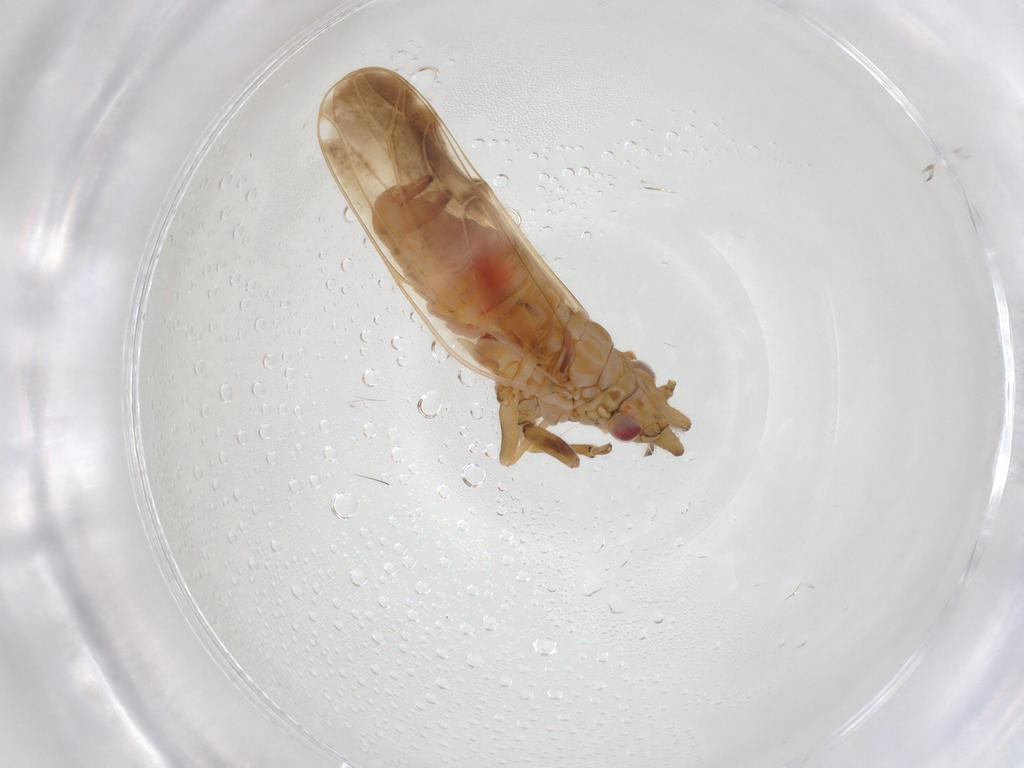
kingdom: Animalia
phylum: Arthropoda
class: Insecta
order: Hemiptera
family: Psyllidae
